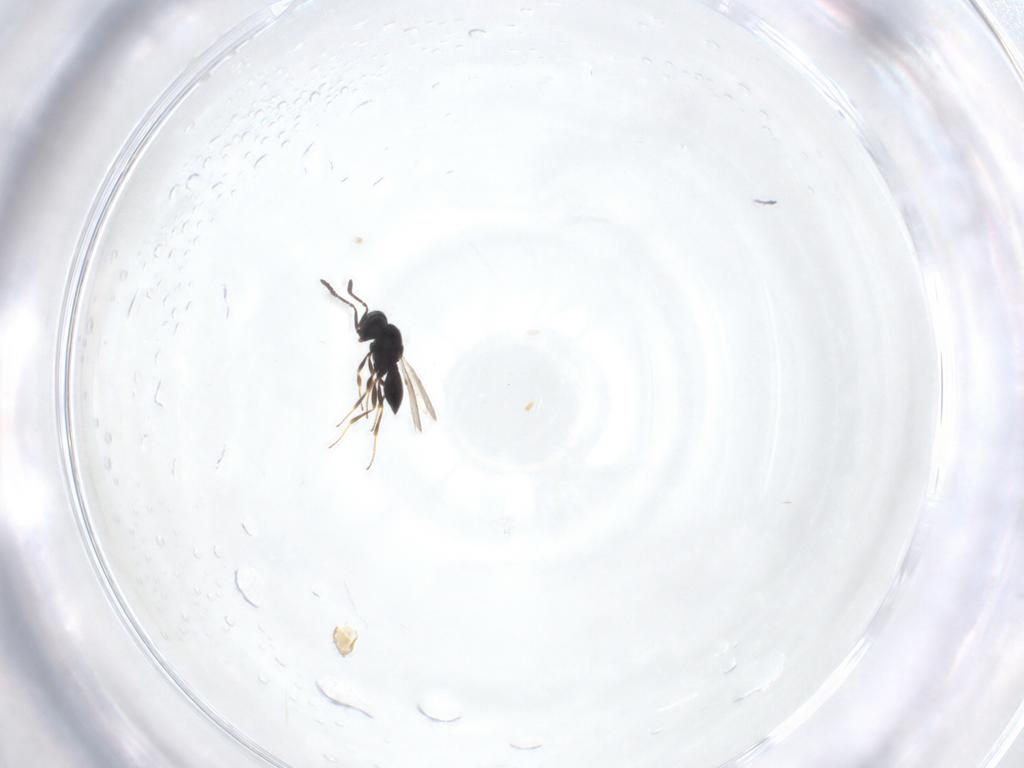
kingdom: Animalia
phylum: Arthropoda
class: Insecta
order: Hymenoptera
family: Scelionidae
